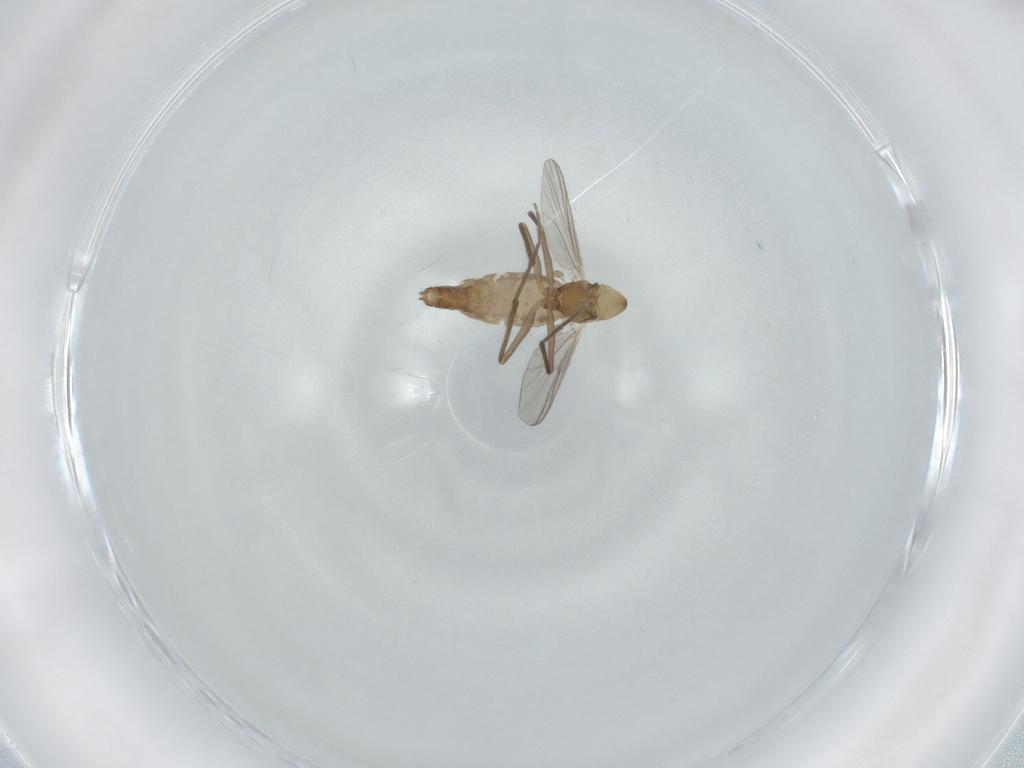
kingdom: Animalia
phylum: Arthropoda
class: Insecta
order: Diptera
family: Chironomidae
